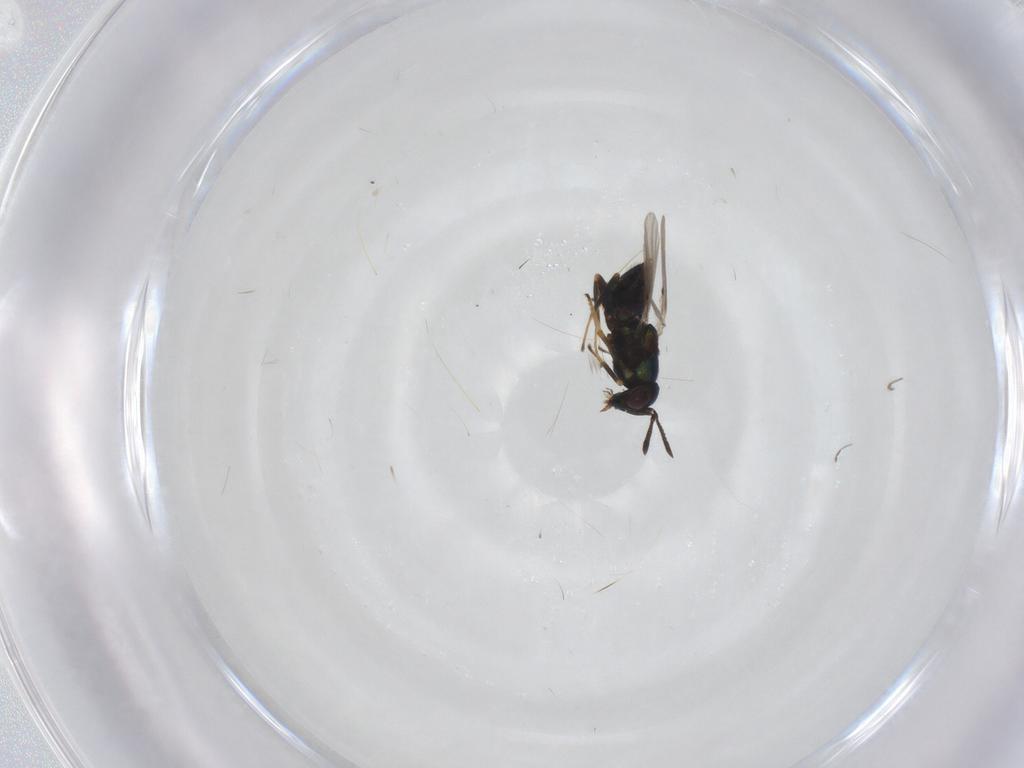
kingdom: Animalia
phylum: Arthropoda
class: Insecta
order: Hymenoptera
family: Encyrtidae
